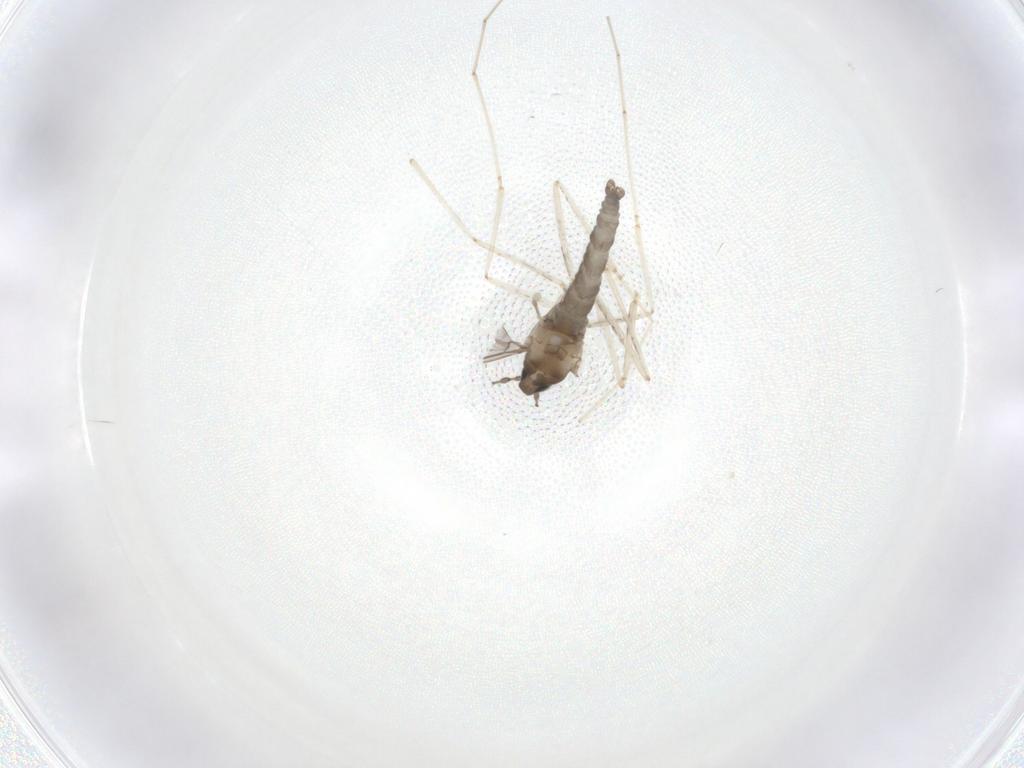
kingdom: Animalia
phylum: Arthropoda
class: Insecta
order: Diptera
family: Cecidomyiidae
